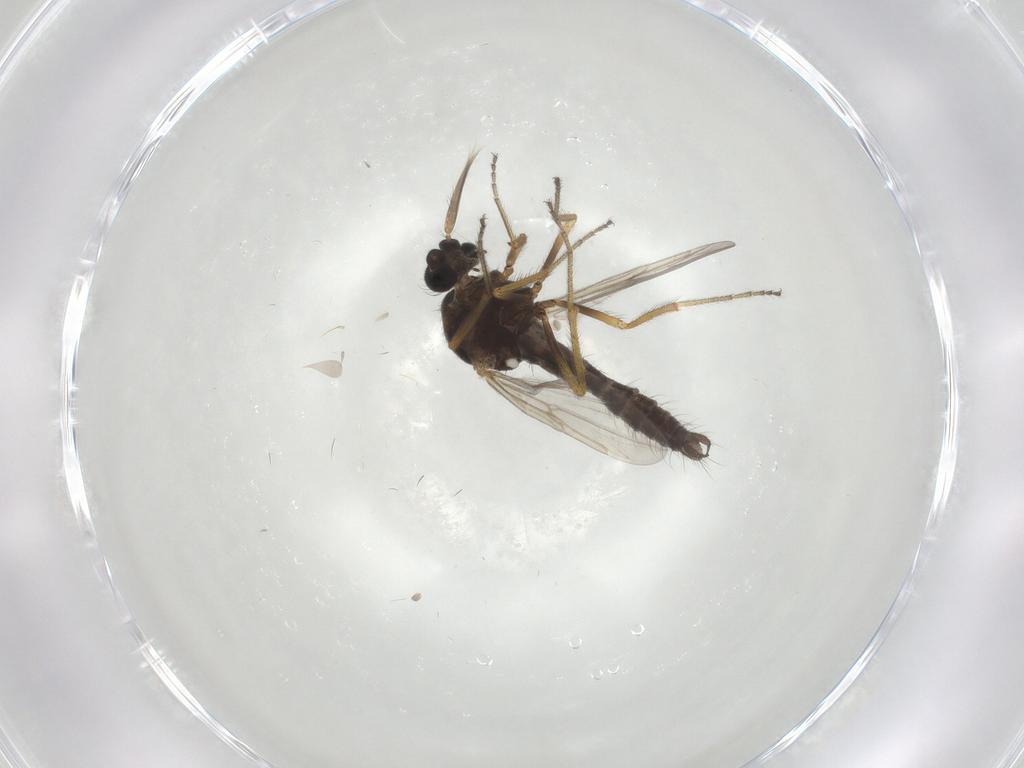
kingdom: Animalia
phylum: Arthropoda
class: Insecta
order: Diptera
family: Ceratopogonidae
